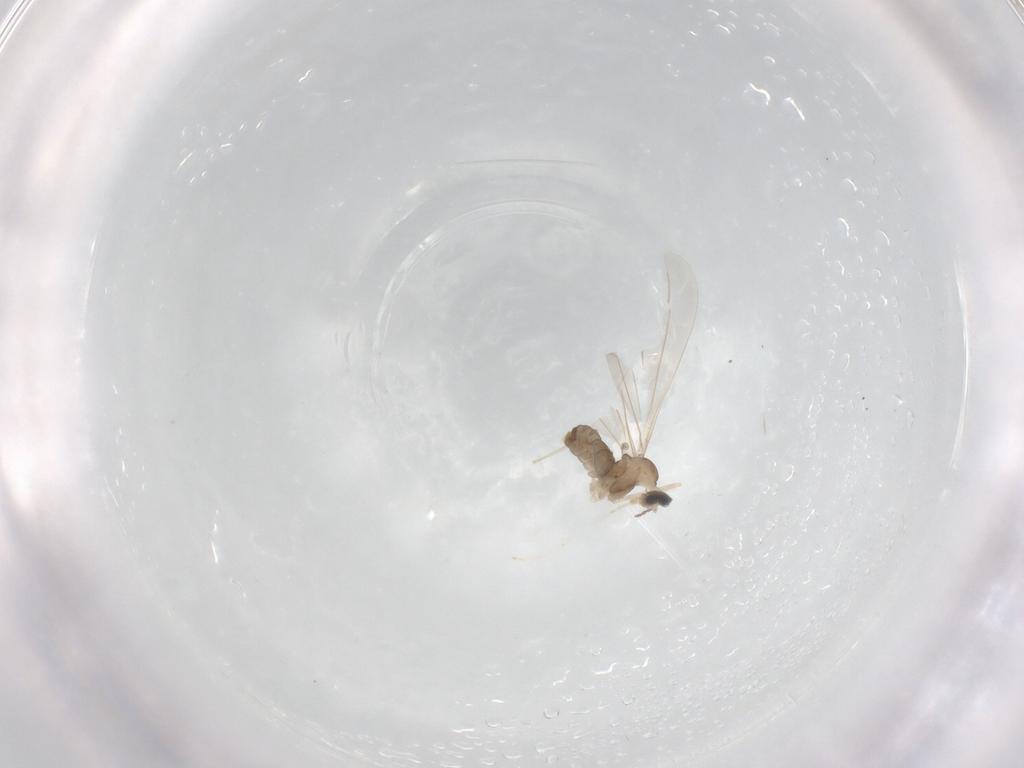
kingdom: Animalia
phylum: Arthropoda
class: Insecta
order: Diptera
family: Cecidomyiidae
